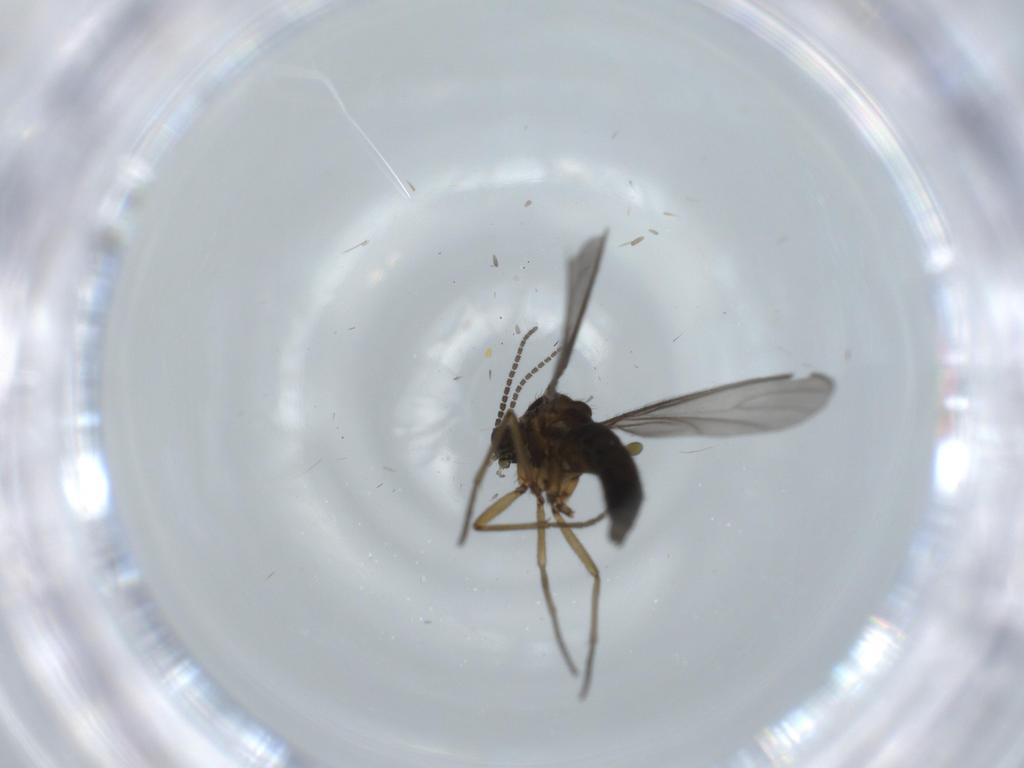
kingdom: Animalia
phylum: Arthropoda
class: Insecta
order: Diptera
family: Sciaridae
